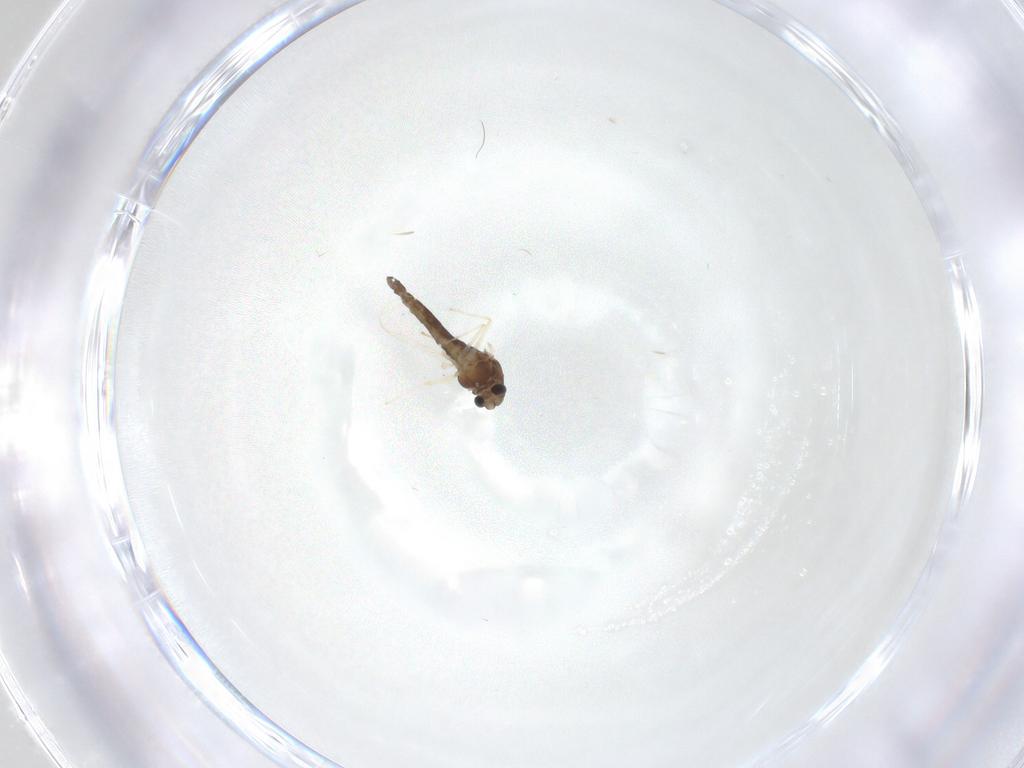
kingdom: Animalia
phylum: Arthropoda
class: Insecta
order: Diptera
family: Chironomidae
